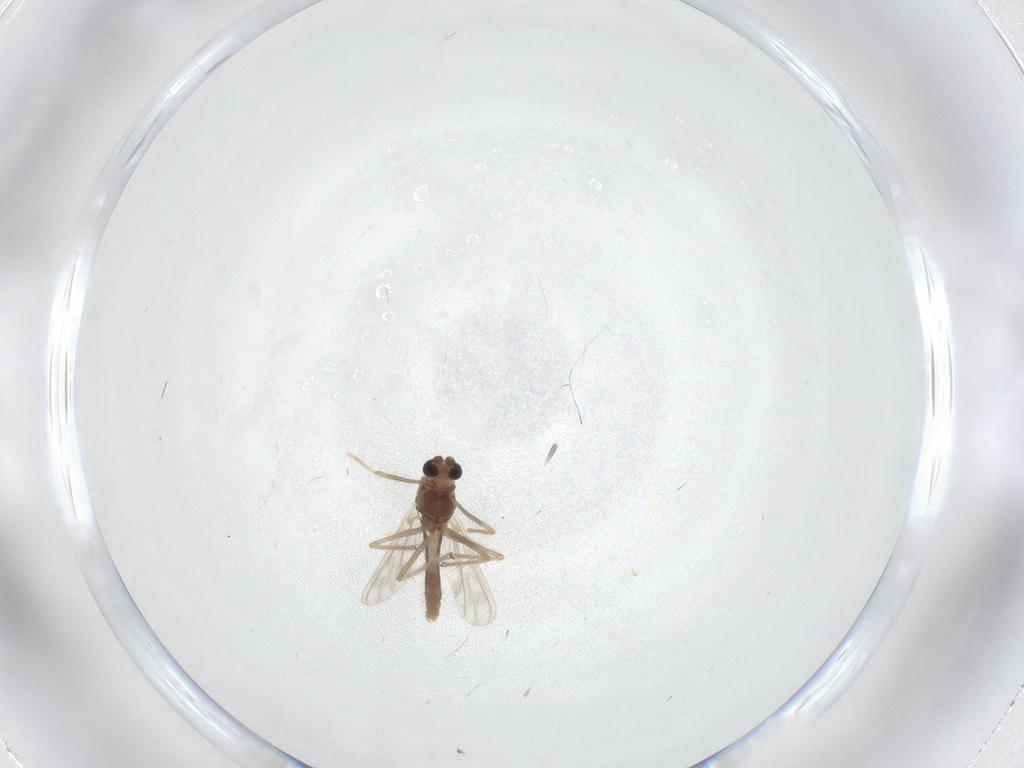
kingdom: Animalia
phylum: Arthropoda
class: Insecta
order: Diptera
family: Chironomidae
